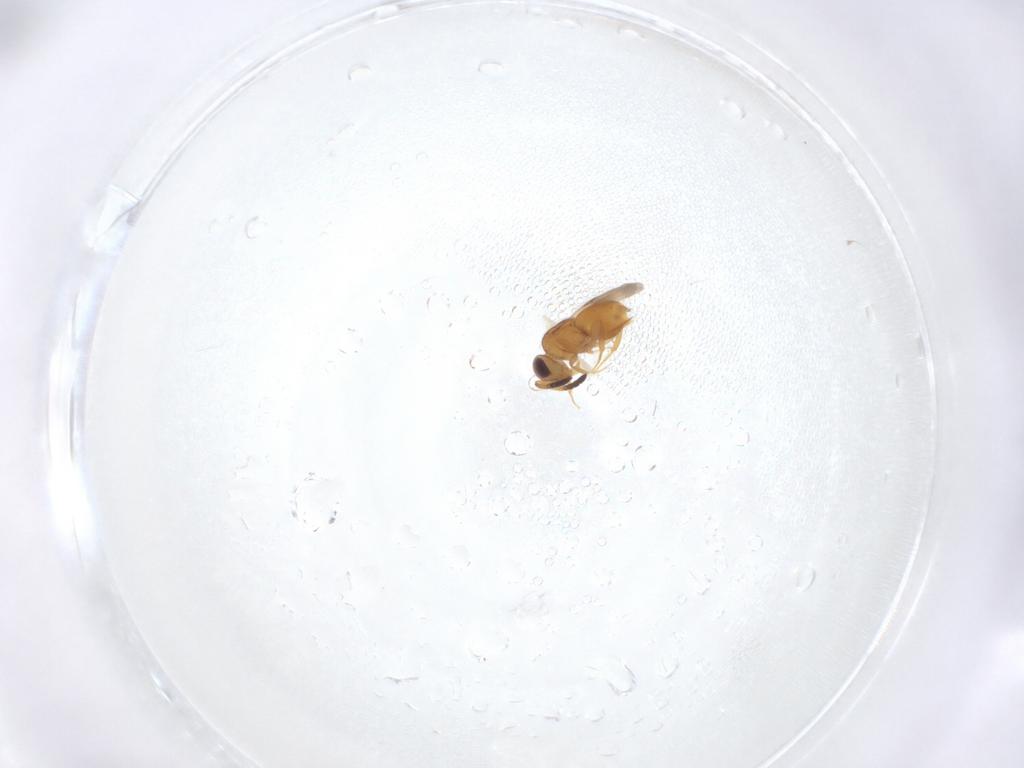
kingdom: Animalia
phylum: Arthropoda
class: Insecta
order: Hymenoptera
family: Ceraphronidae
